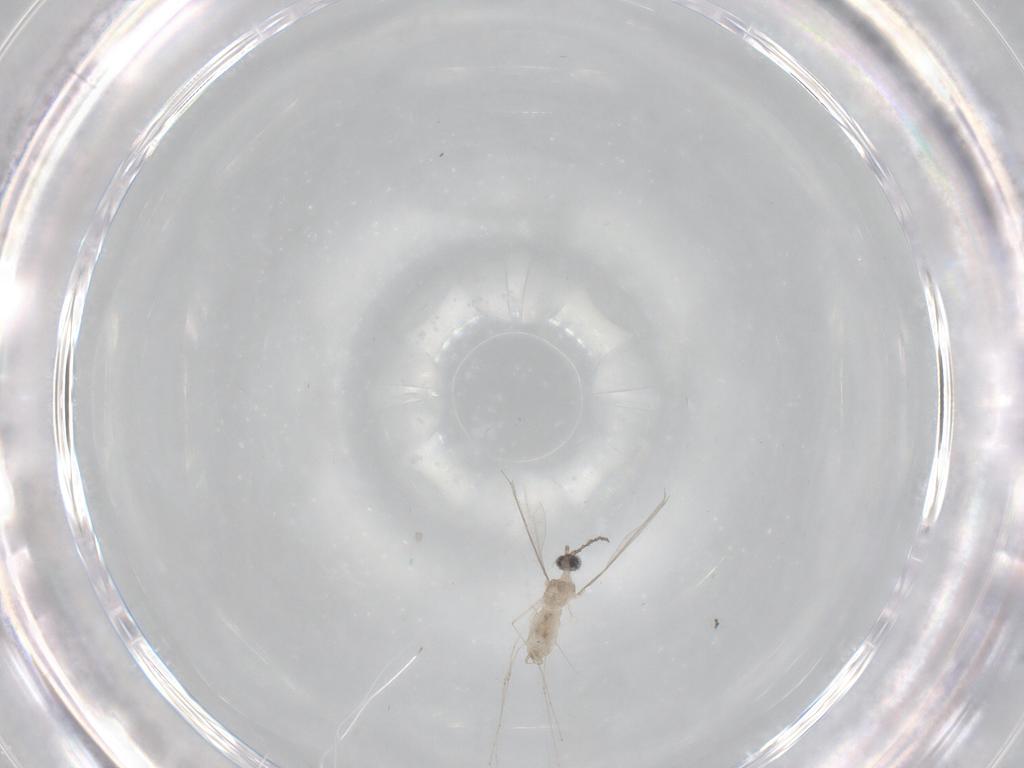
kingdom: Animalia
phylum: Arthropoda
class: Insecta
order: Diptera
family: Cecidomyiidae
